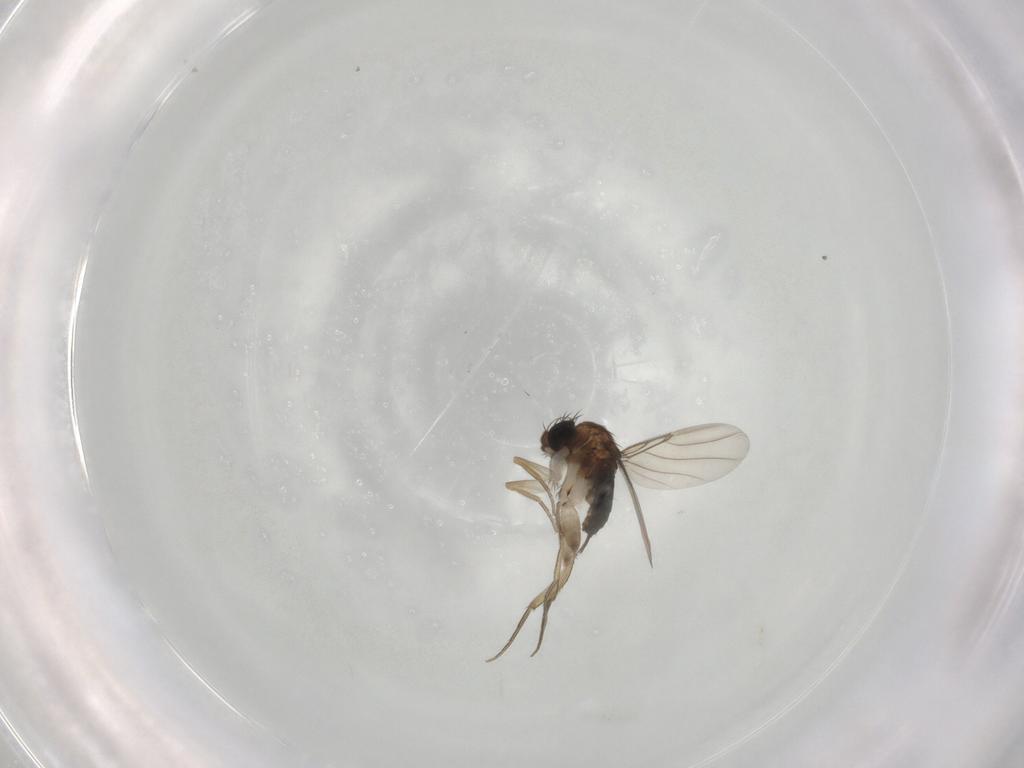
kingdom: Animalia
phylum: Arthropoda
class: Insecta
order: Diptera
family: Phoridae
